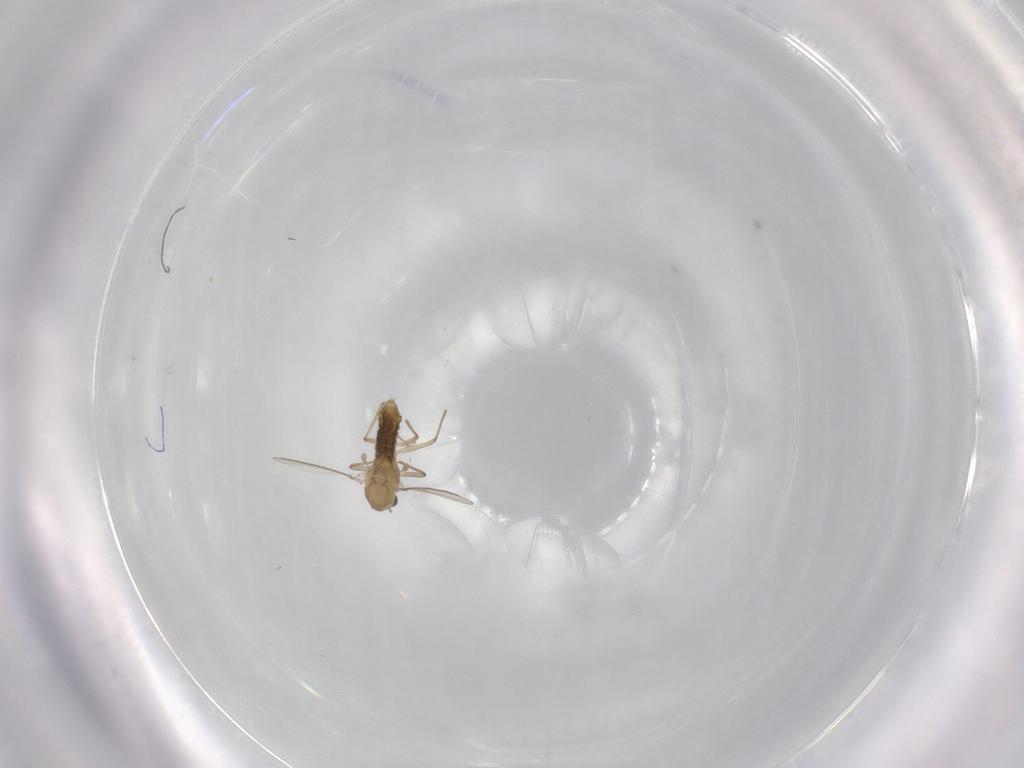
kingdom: Animalia
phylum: Arthropoda
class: Insecta
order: Diptera
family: Chironomidae
